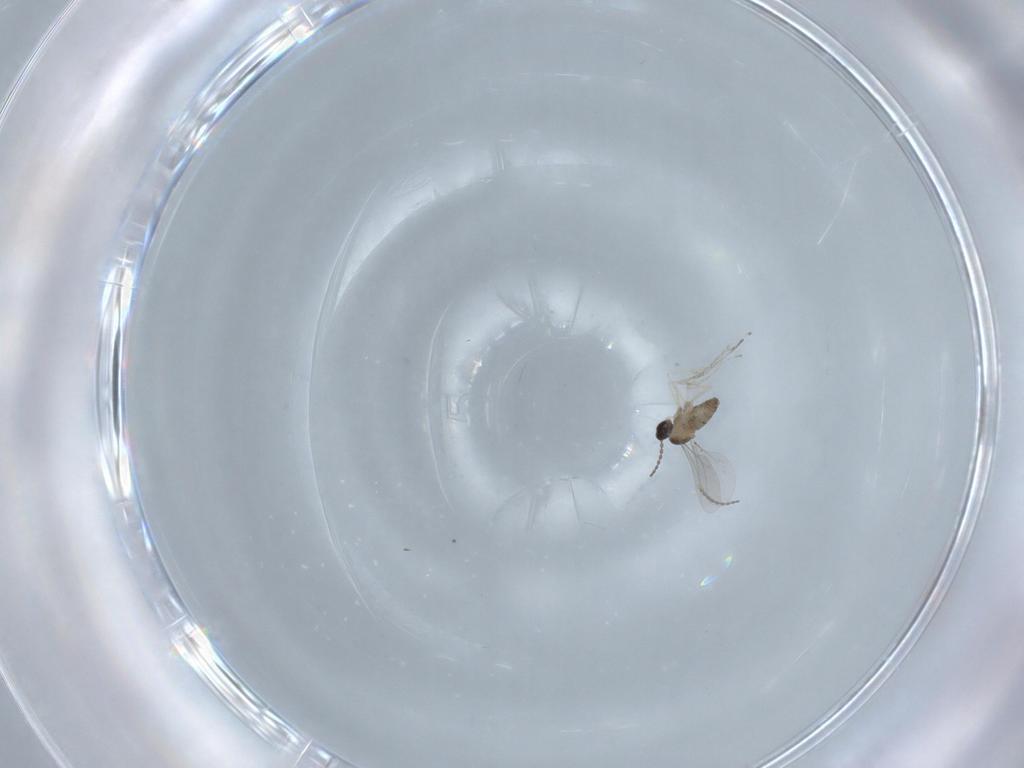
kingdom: Animalia
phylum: Arthropoda
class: Insecta
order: Diptera
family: Cecidomyiidae
